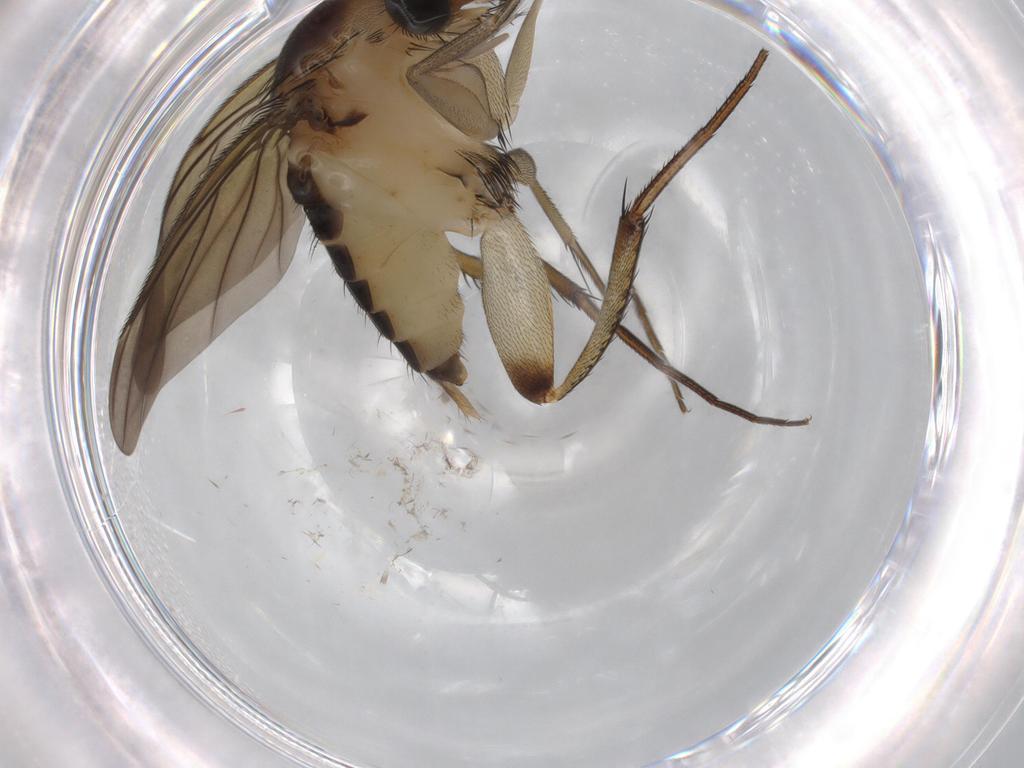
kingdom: Animalia
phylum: Arthropoda
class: Insecta
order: Diptera
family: Phoridae
